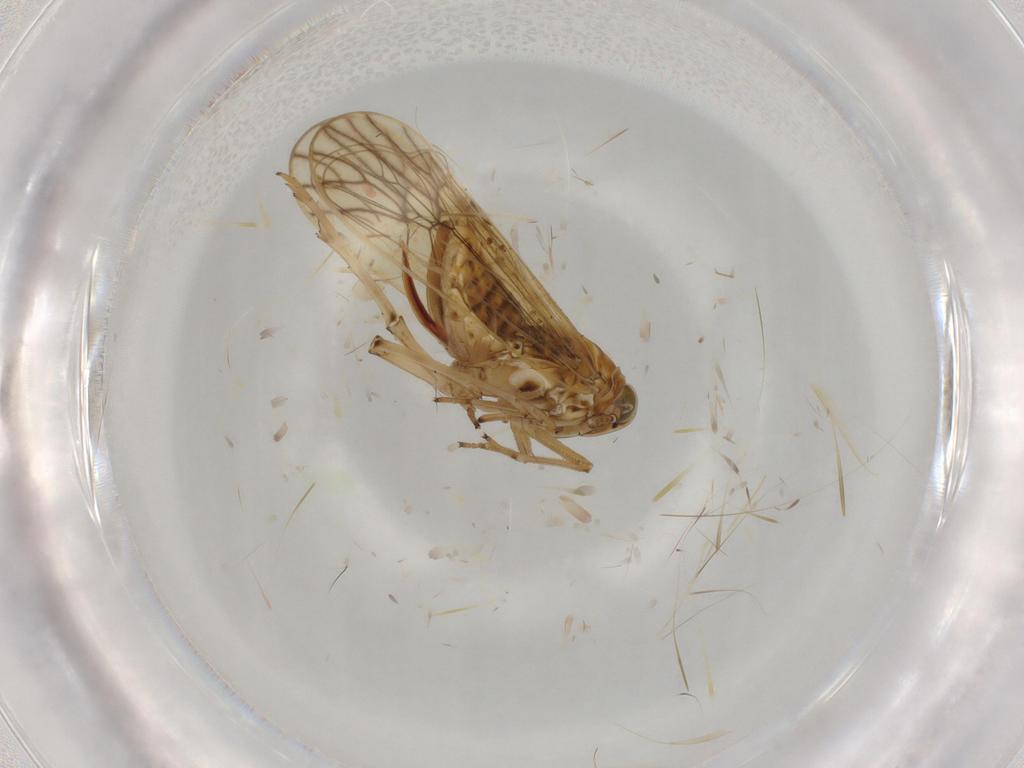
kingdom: Animalia
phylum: Arthropoda
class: Insecta
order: Hemiptera
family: Delphacidae
